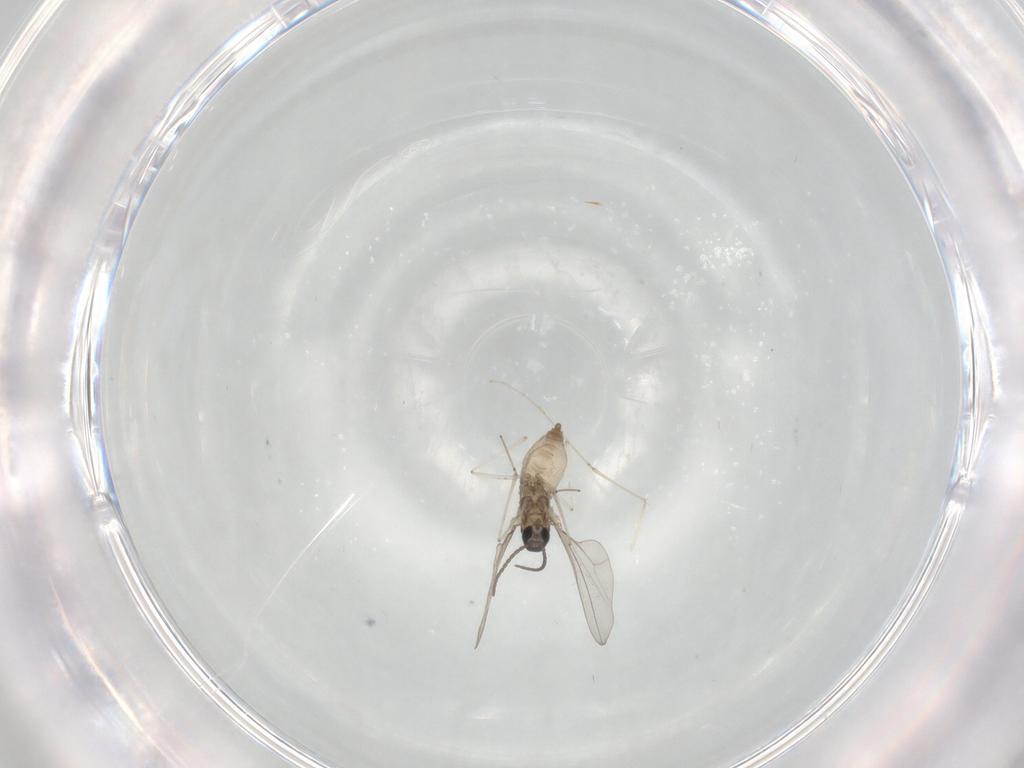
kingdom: Animalia
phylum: Arthropoda
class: Insecta
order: Diptera
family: Cecidomyiidae
